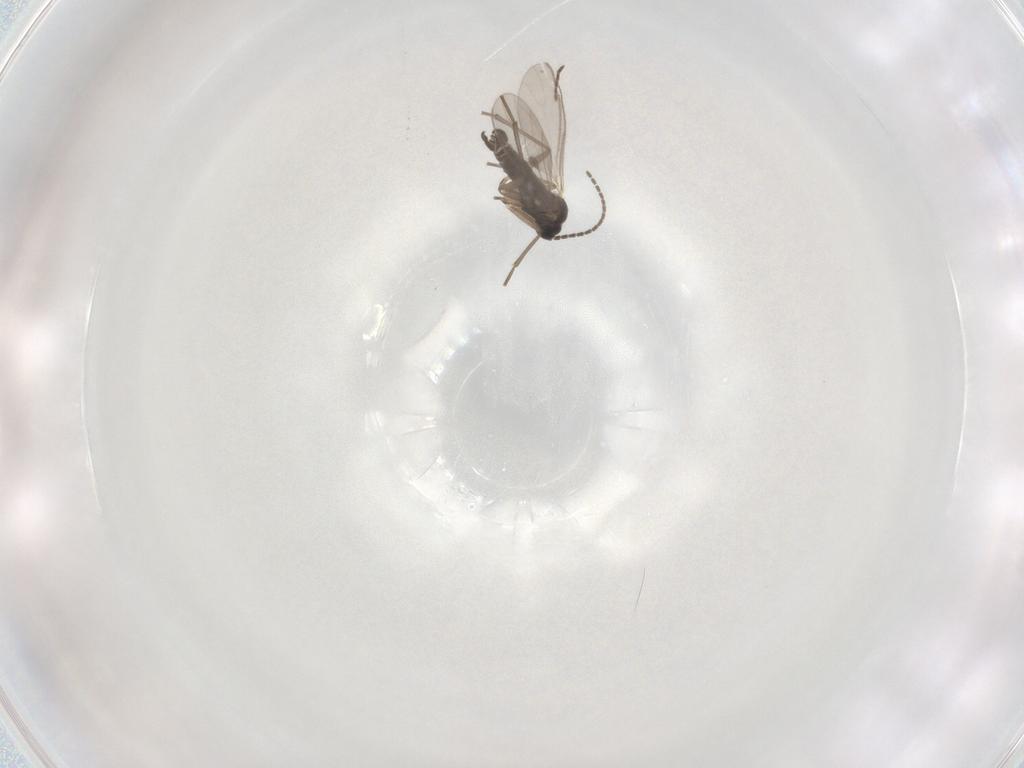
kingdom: Animalia
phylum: Arthropoda
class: Insecta
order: Diptera
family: Sciaridae
